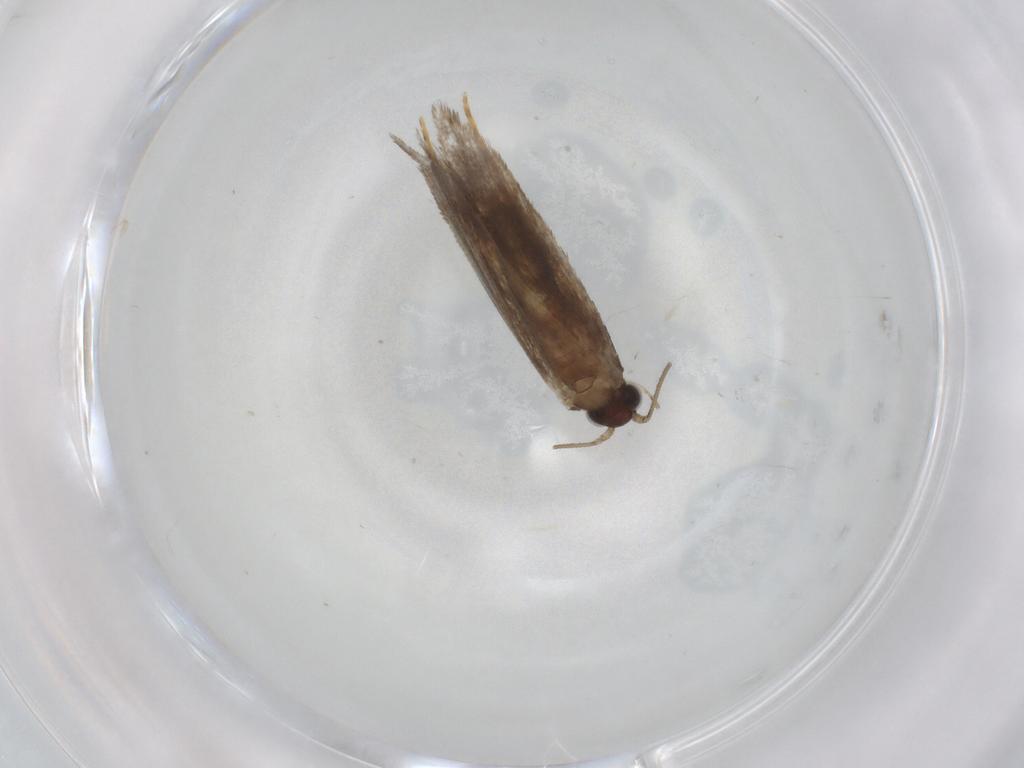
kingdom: Animalia
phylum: Arthropoda
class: Insecta
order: Lepidoptera
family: Tineidae
